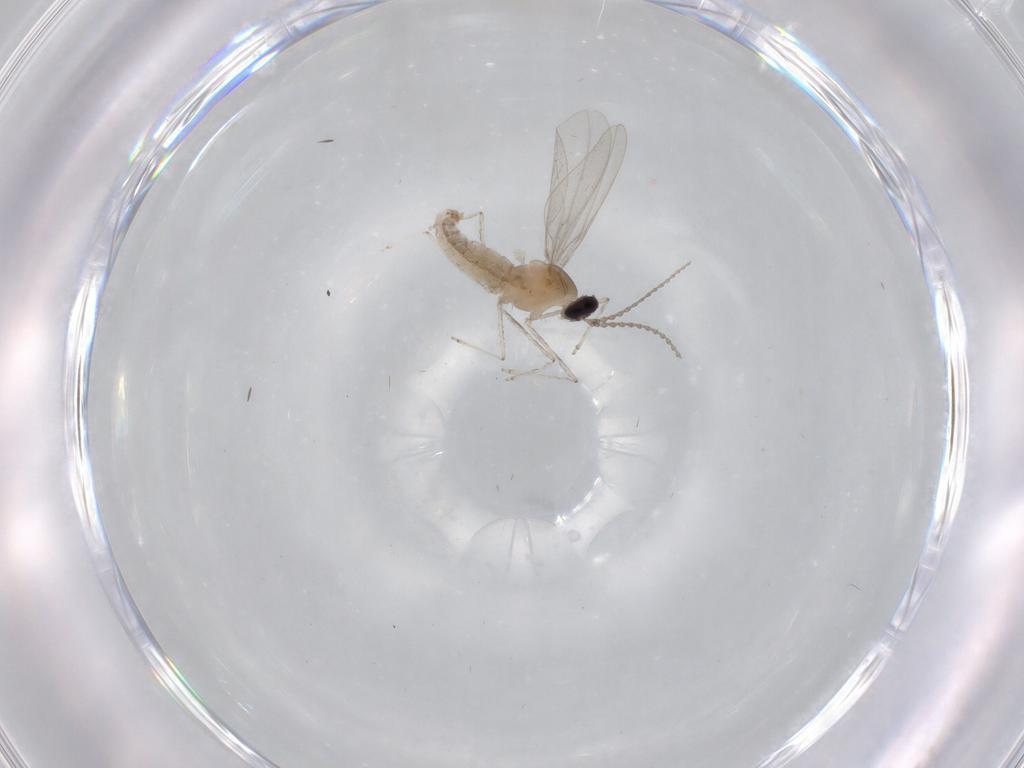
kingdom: Animalia
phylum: Arthropoda
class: Insecta
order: Diptera
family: Cecidomyiidae
